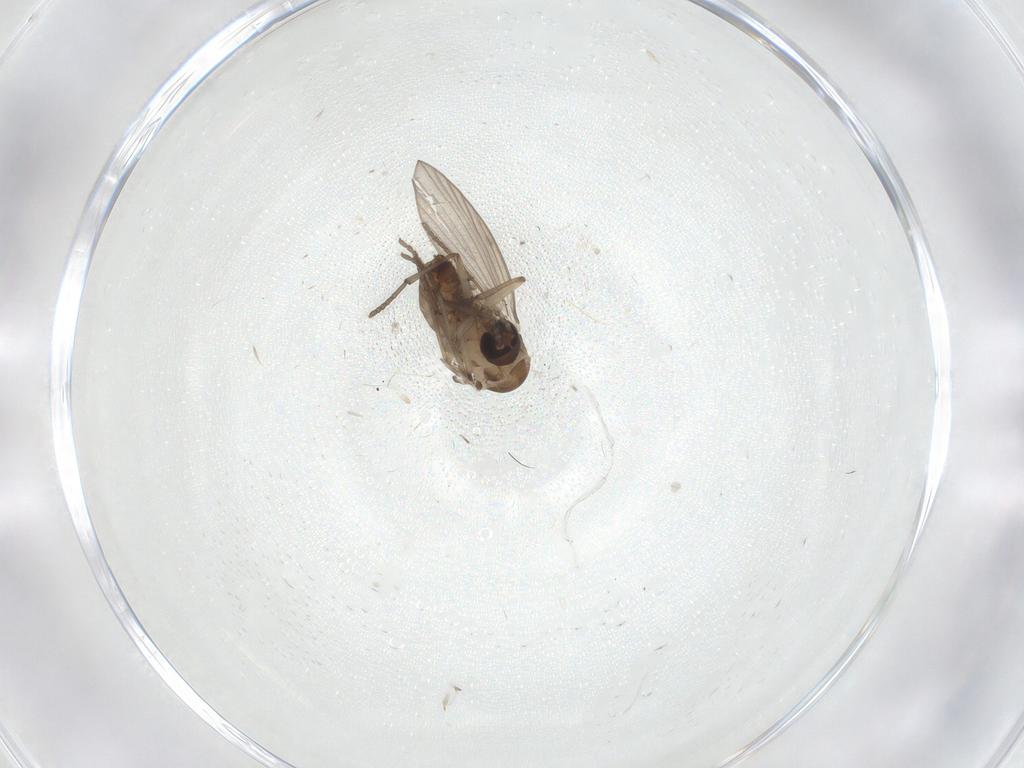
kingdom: Animalia
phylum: Arthropoda
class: Insecta
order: Diptera
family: Psychodidae
